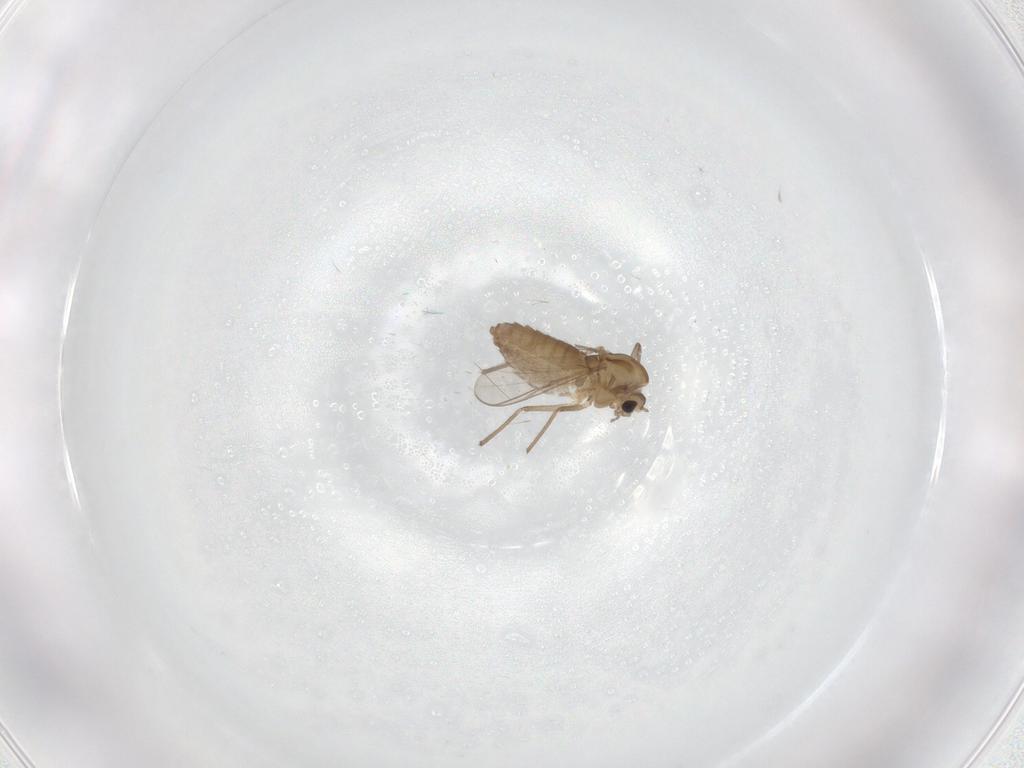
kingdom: Animalia
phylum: Arthropoda
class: Insecta
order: Diptera
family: Chironomidae
